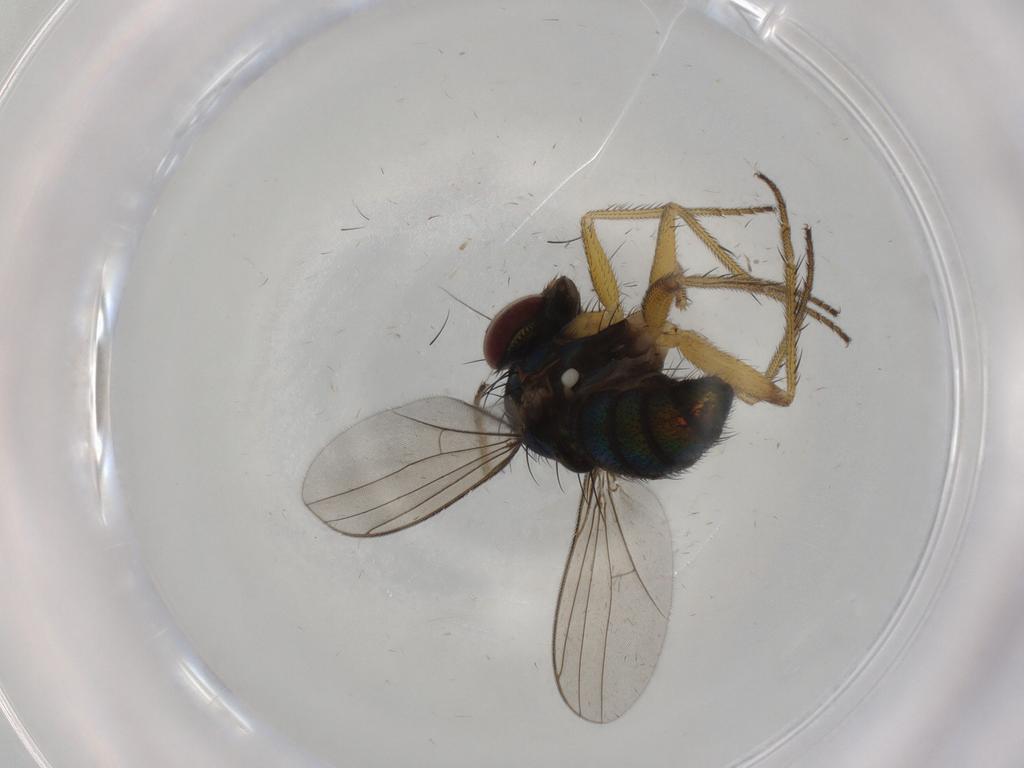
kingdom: Animalia
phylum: Arthropoda
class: Insecta
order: Diptera
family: Dolichopodidae
